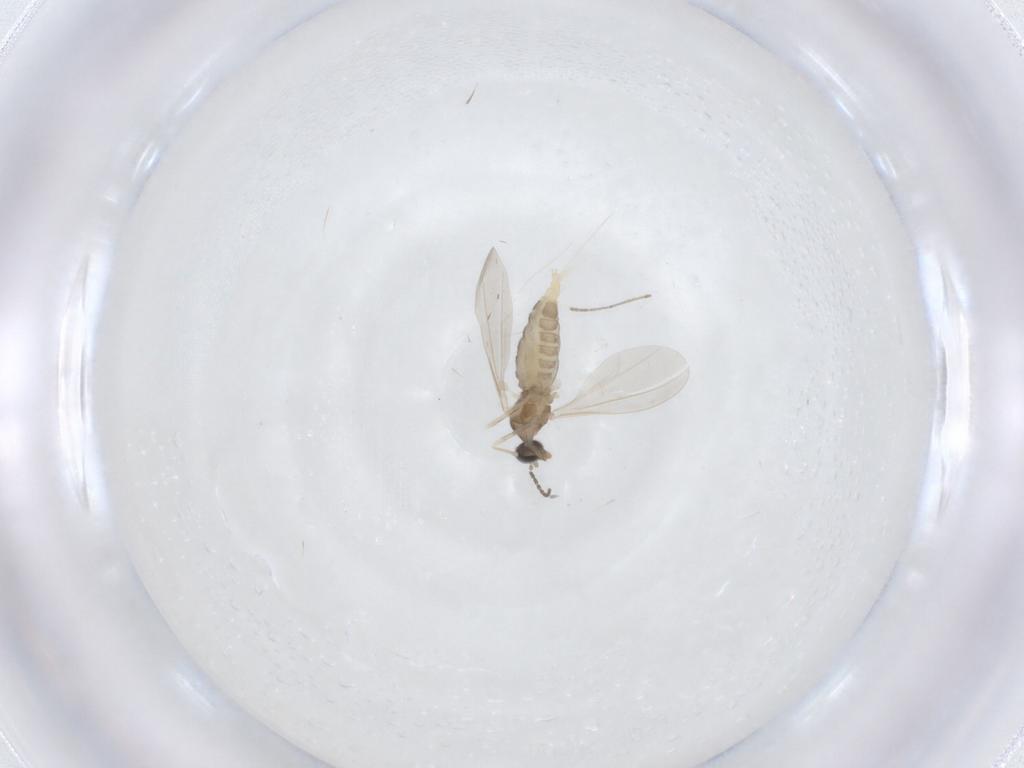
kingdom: Animalia
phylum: Arthropoda
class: Insecta
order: Diptera
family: Cecidomyiidae
